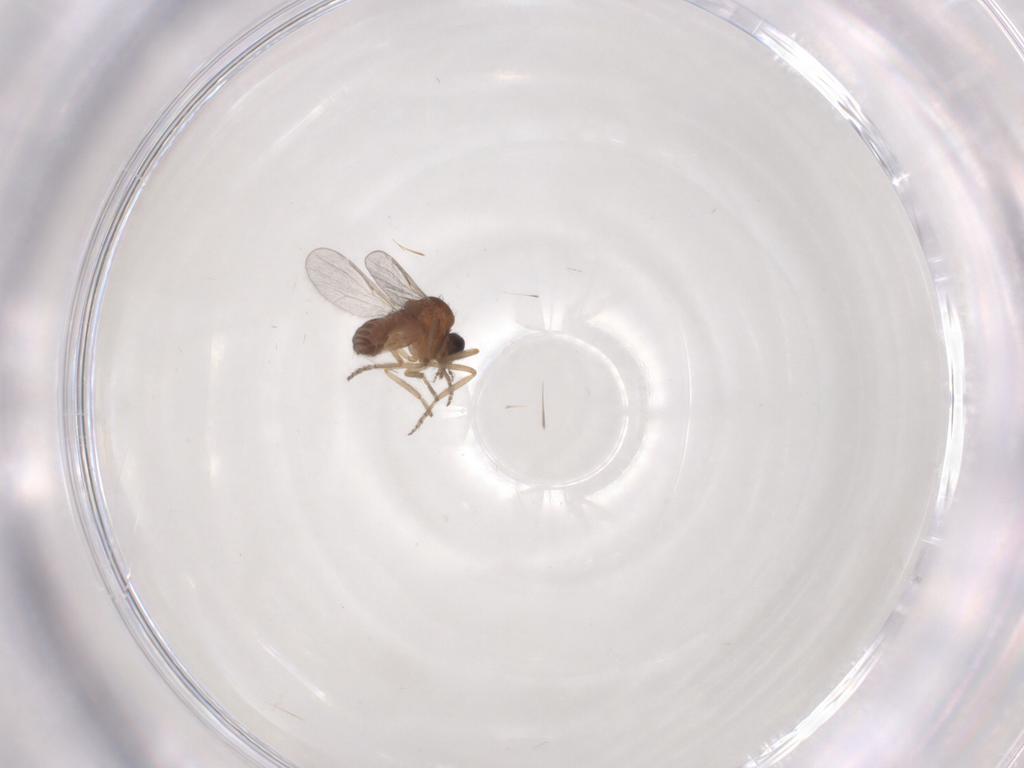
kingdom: Animalia
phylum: Arthropoda
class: Insecta
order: Diptera
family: Ceratopogonidae
